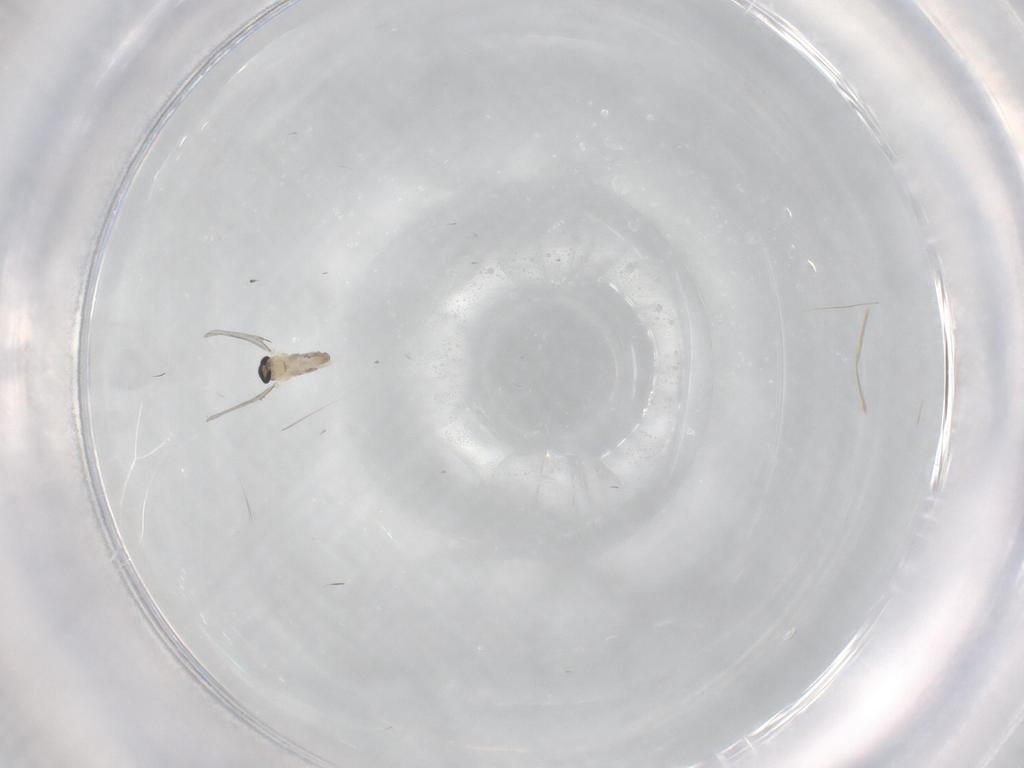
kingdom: Animalia
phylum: Arthropoda
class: Insecta
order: Diptera
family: Cecidomyiidae
